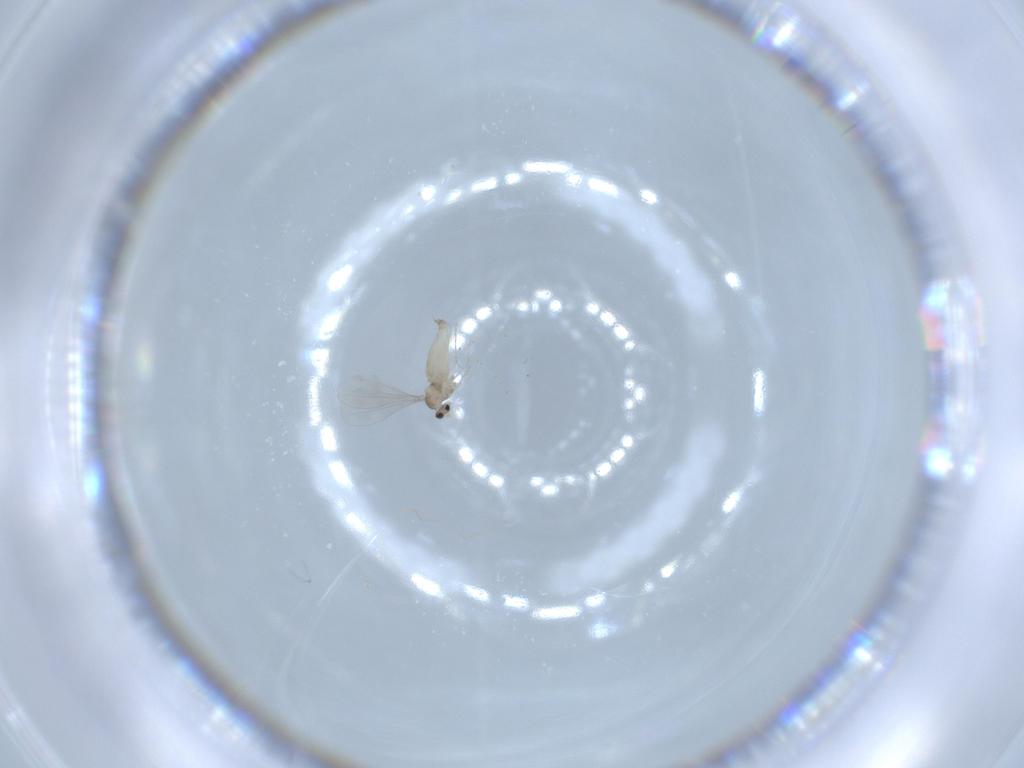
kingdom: Animalia
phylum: Arthropoda
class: Insecta
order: Diptera
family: Cecidomyiidae
